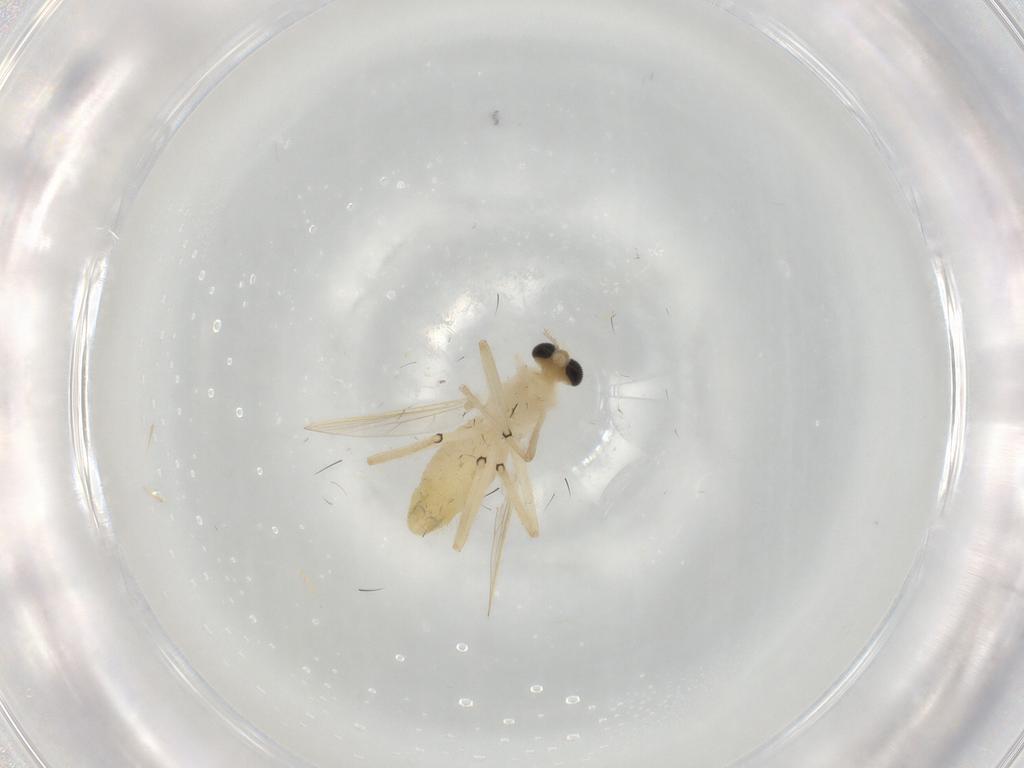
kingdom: Animalia
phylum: Arthropoda
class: Insecta
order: Diptera
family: Chironomidae
